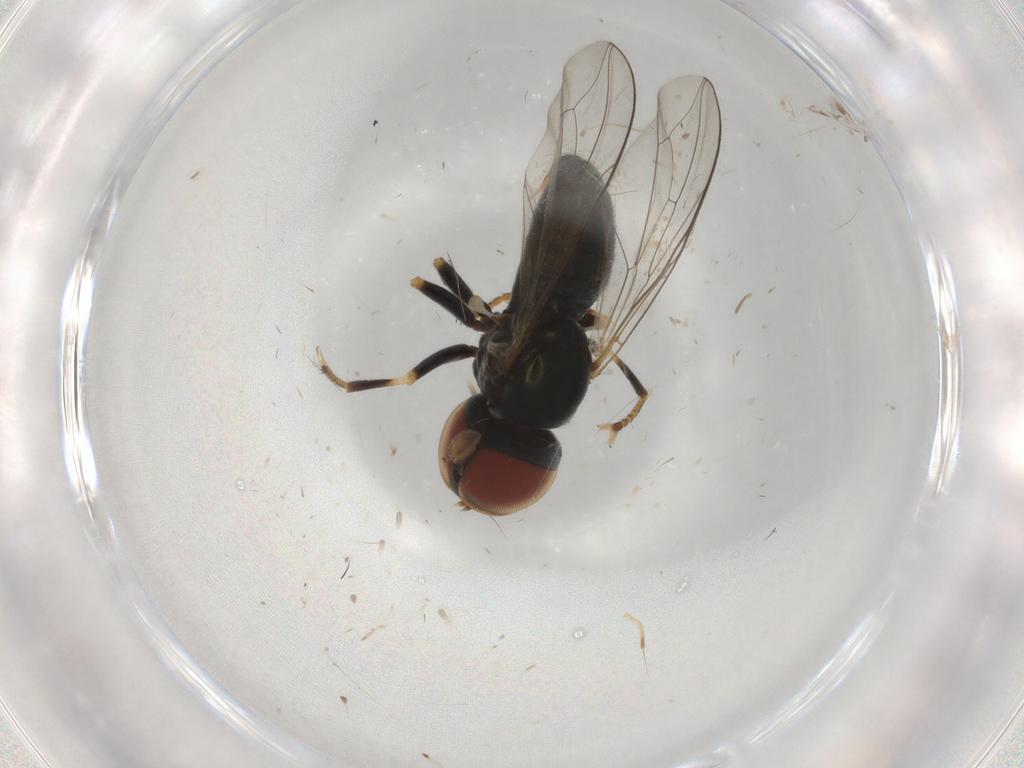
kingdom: Animalia
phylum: Arthropoda
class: Insecta
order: Diptera
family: Pipunculidae
